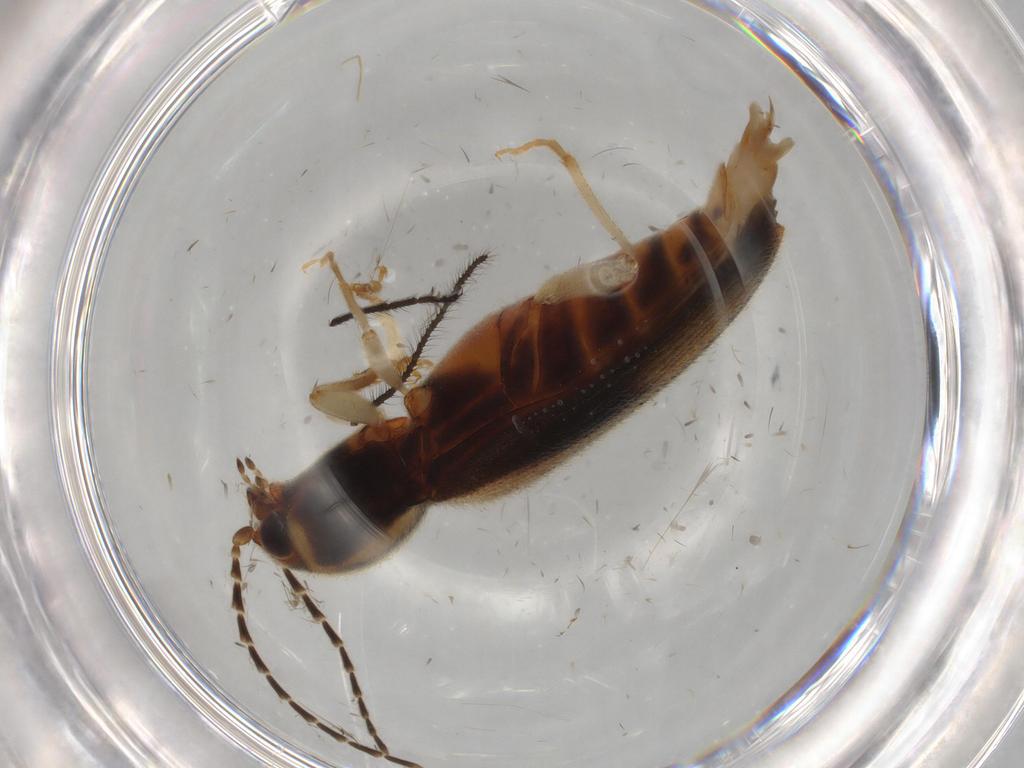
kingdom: Animalia
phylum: Arthropoda
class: Insecta
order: Coleoptera
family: Elateridae
